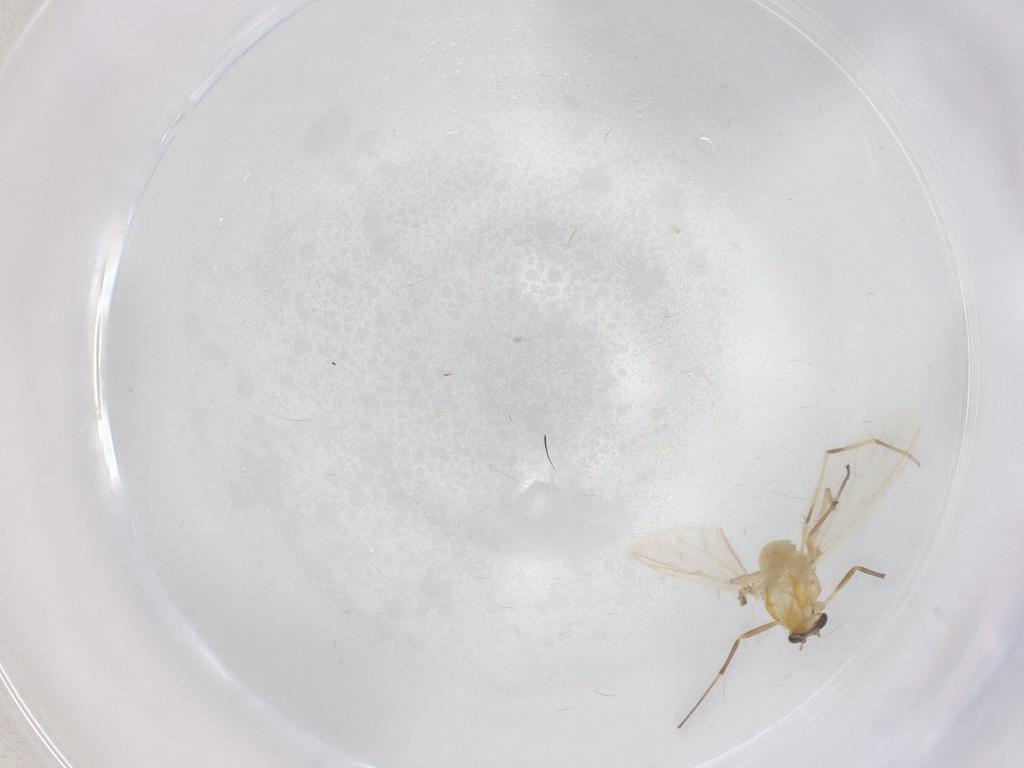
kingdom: Animalia
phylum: Arthropoda
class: Insecta
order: Diptera
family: Chironomidae
